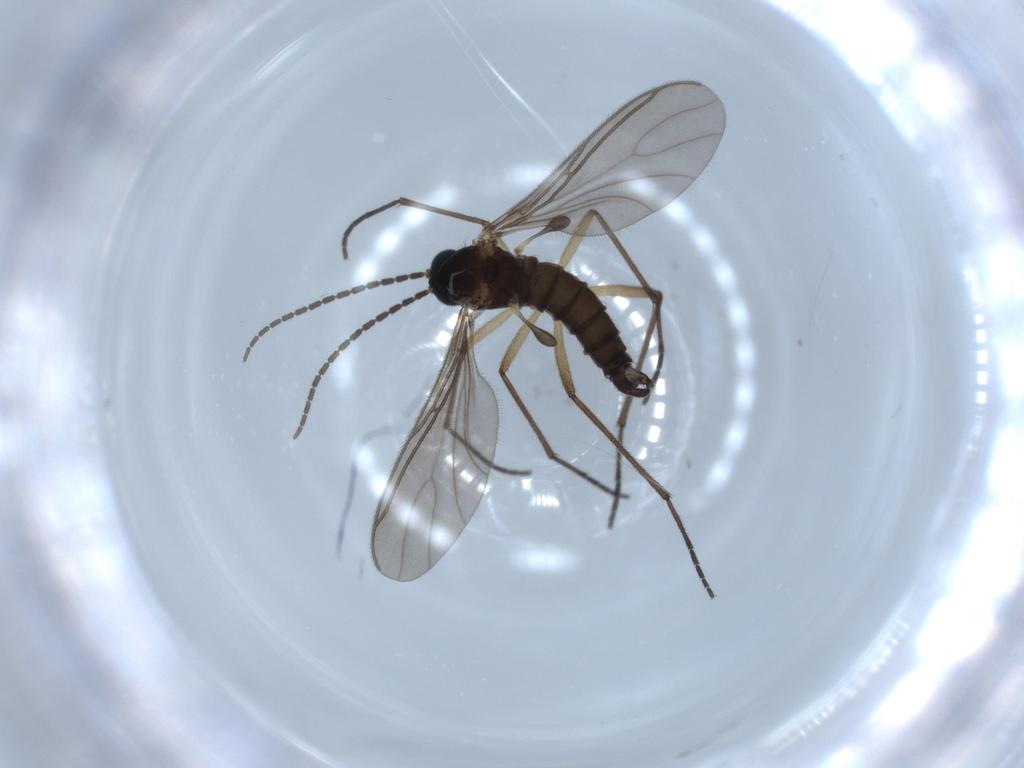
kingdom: Animalia
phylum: Arthropoda
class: Insecta
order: Diptera
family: Sciaridae
